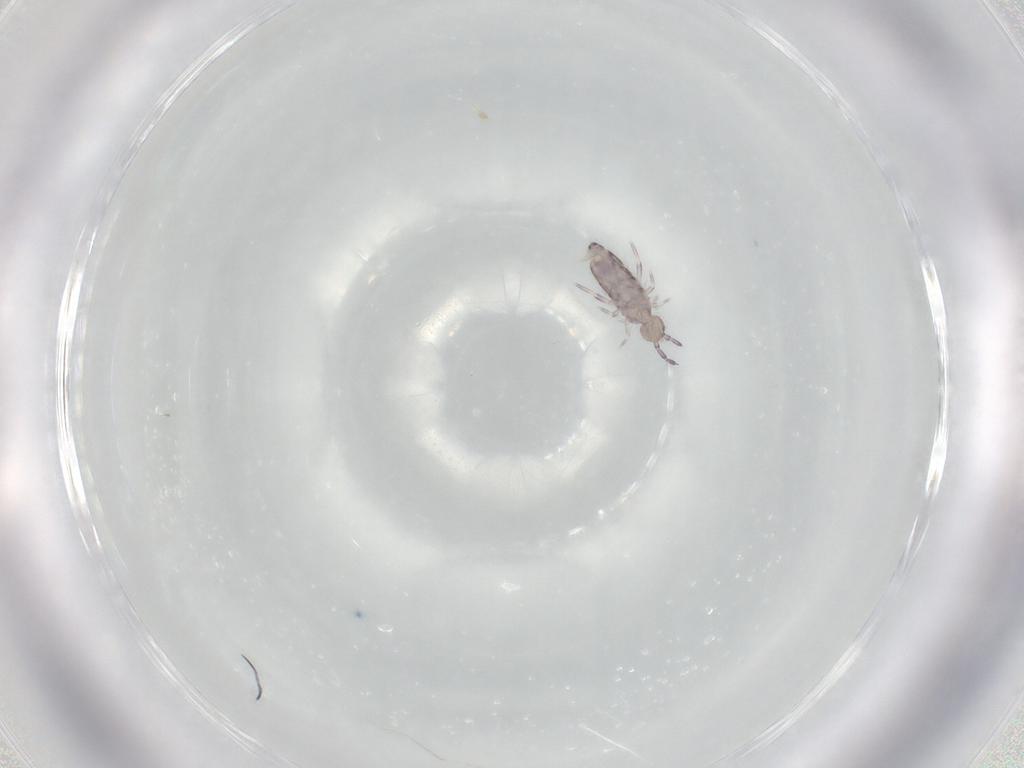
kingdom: Animalia
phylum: Arthropoda
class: Collembola
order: Entomobryomorpha
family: Entomobryidae
